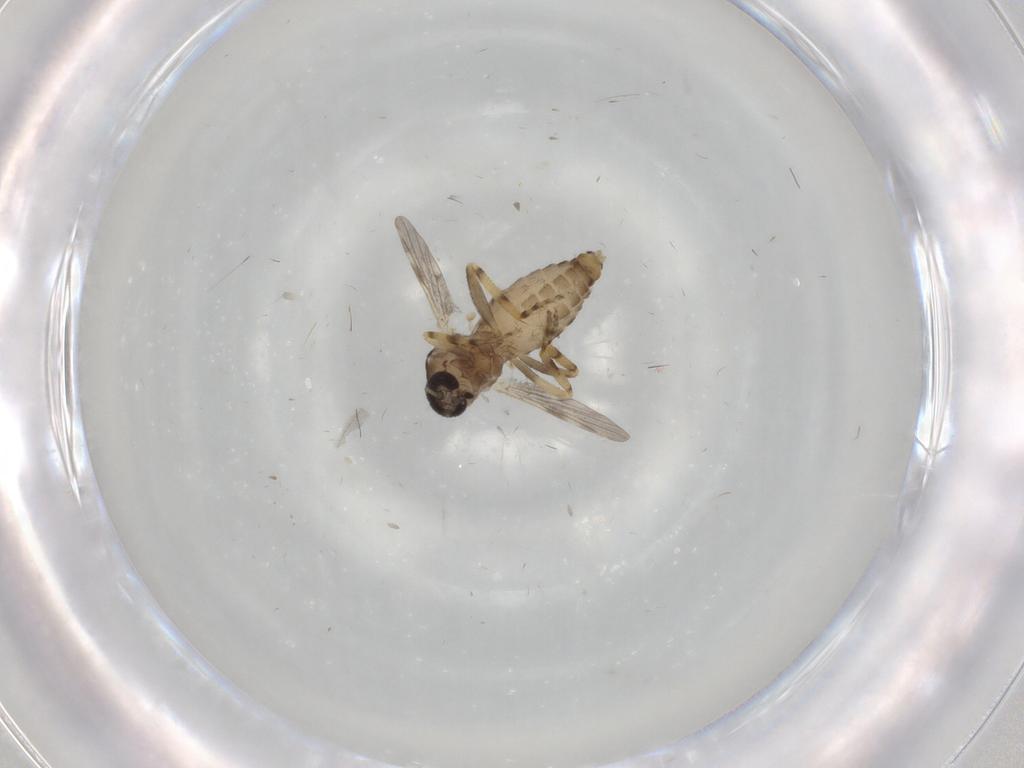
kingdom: Animalia
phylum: Arthropoda
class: Insecta
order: Diptera
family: Ceratopogonidae
